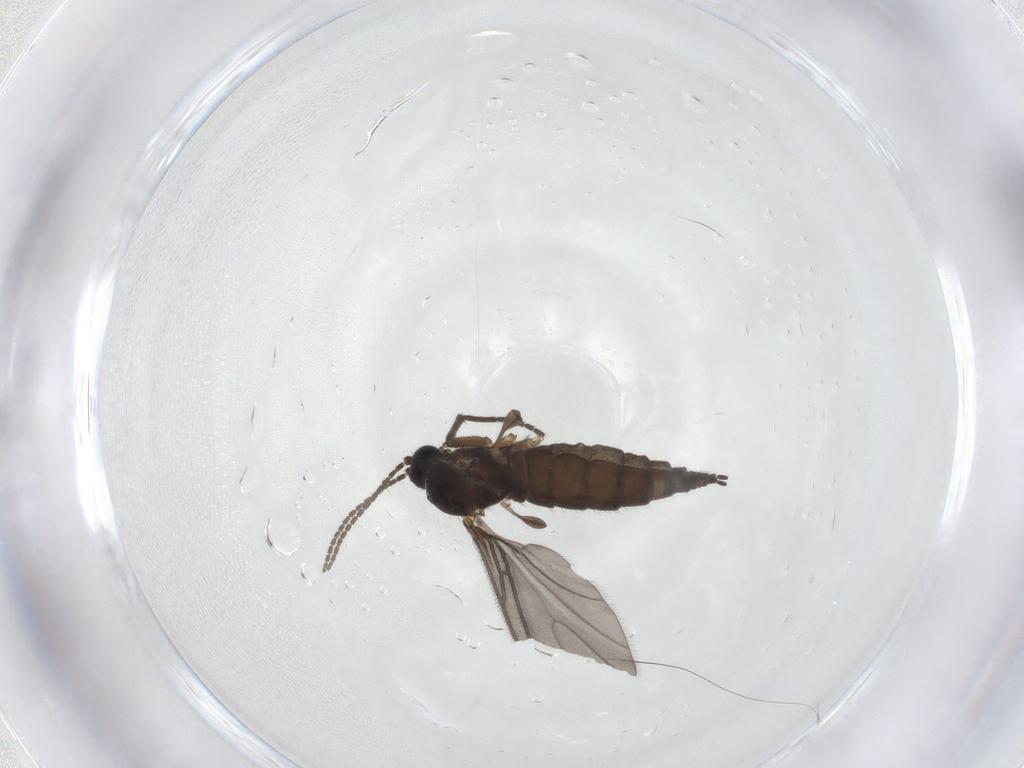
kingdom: Animalia
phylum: Arthropoda
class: Insecta
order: Diptera
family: Sciaridae
